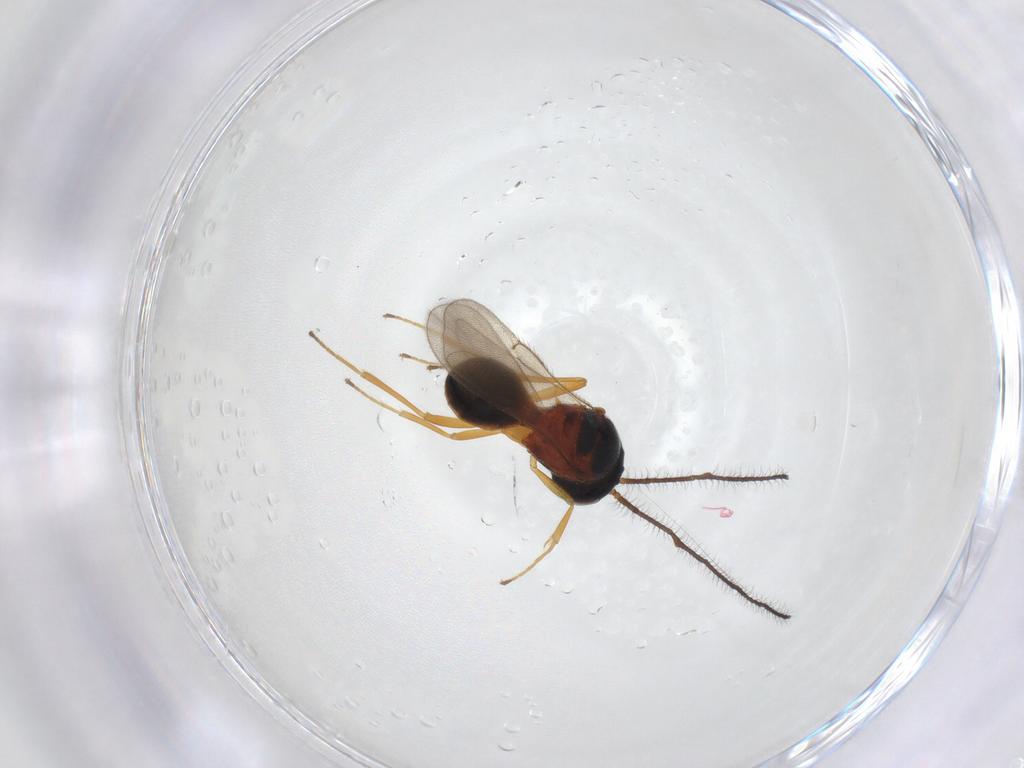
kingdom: Animalia
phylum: Arthropoda
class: Insecta
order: Hymenoptera
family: Scelionidae
